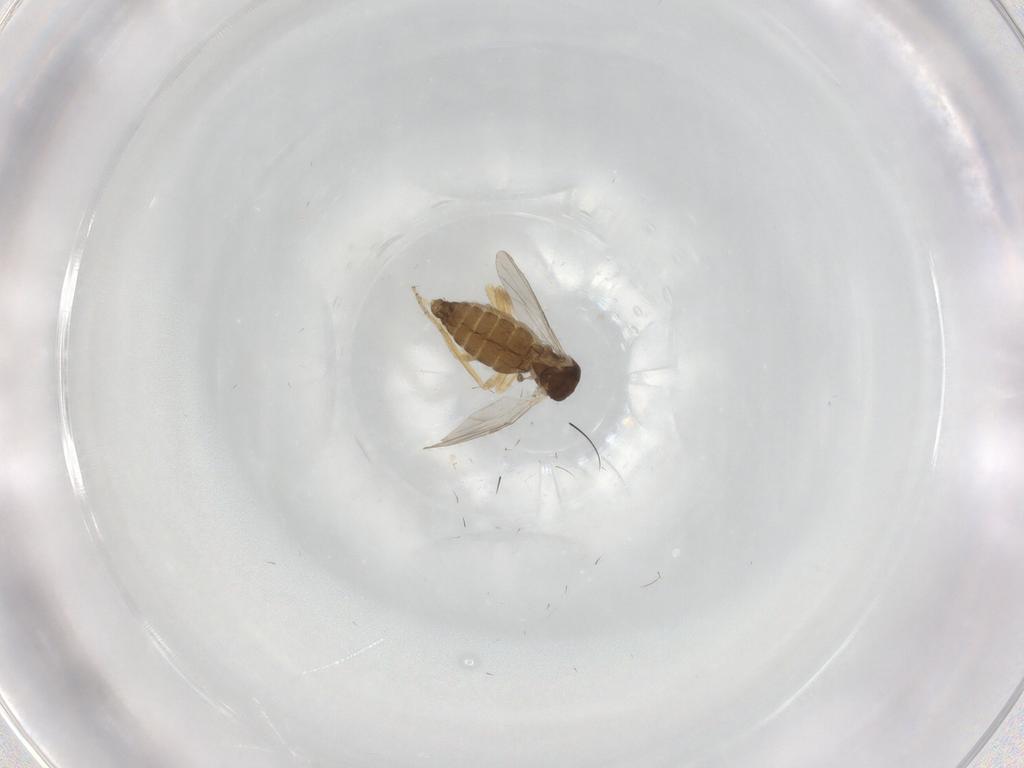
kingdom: Animalia
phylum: Arthropoda
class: Insecta
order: Diptera
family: Ceratopogonidae
